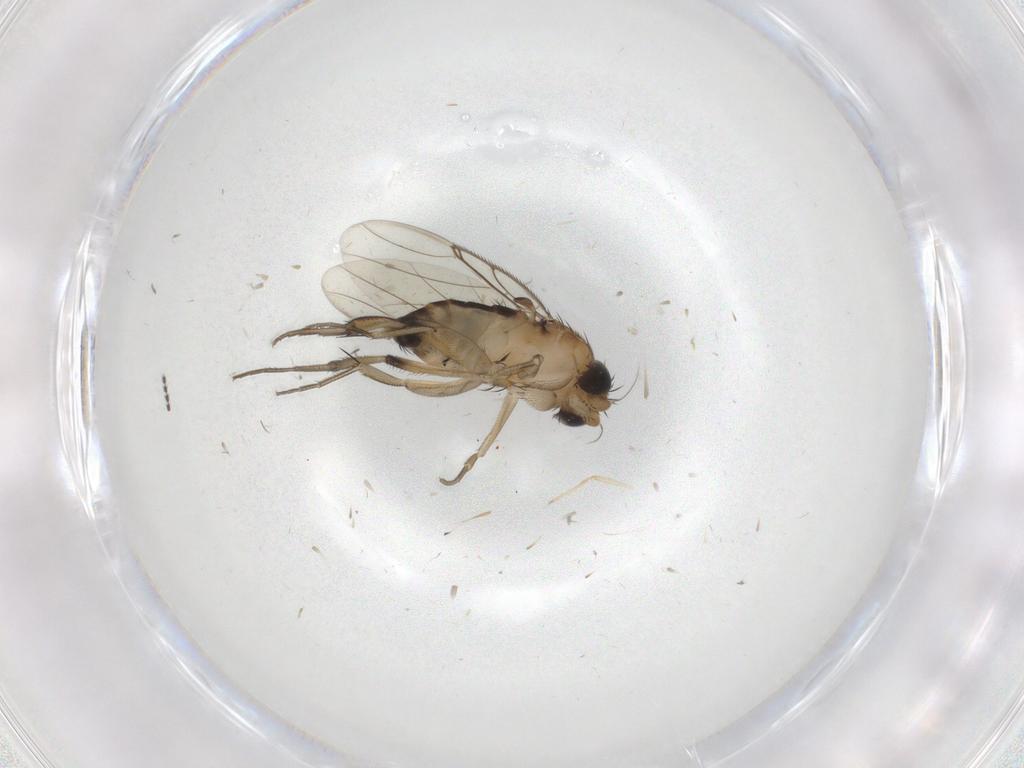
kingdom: Animalia
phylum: Arthropoda
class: Insecta
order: Diptera
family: Phoridae
